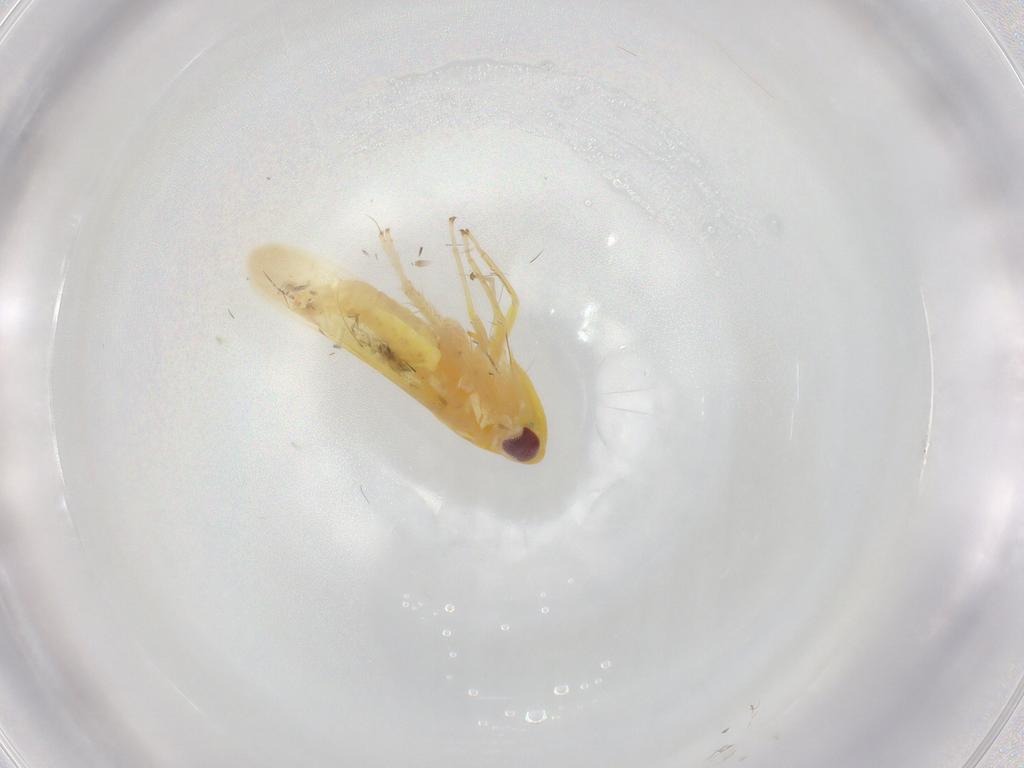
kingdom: Animalia
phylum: Arthropoda
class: Insecta
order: Hemiptera
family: Cicadellidae
